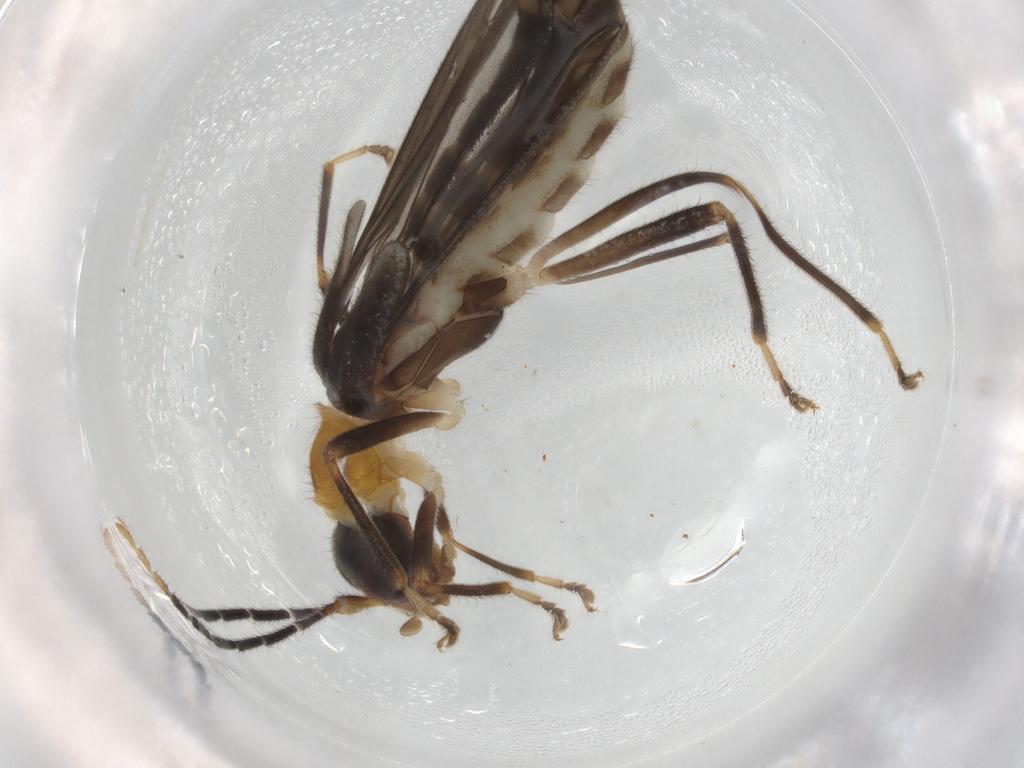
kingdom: Animalia
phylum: Arthropoda
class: Insecta
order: Coleoptera
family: Cantharidae
